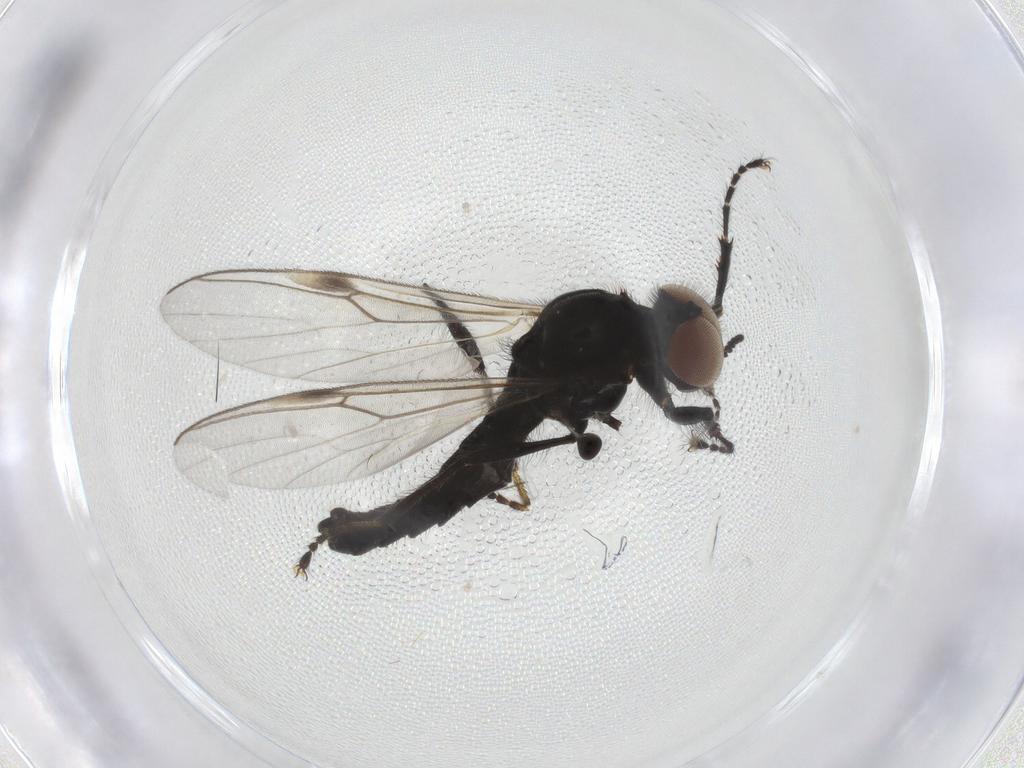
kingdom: Animalia
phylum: Arthropoda
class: Insecta
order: Diptera
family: Bibionidae
